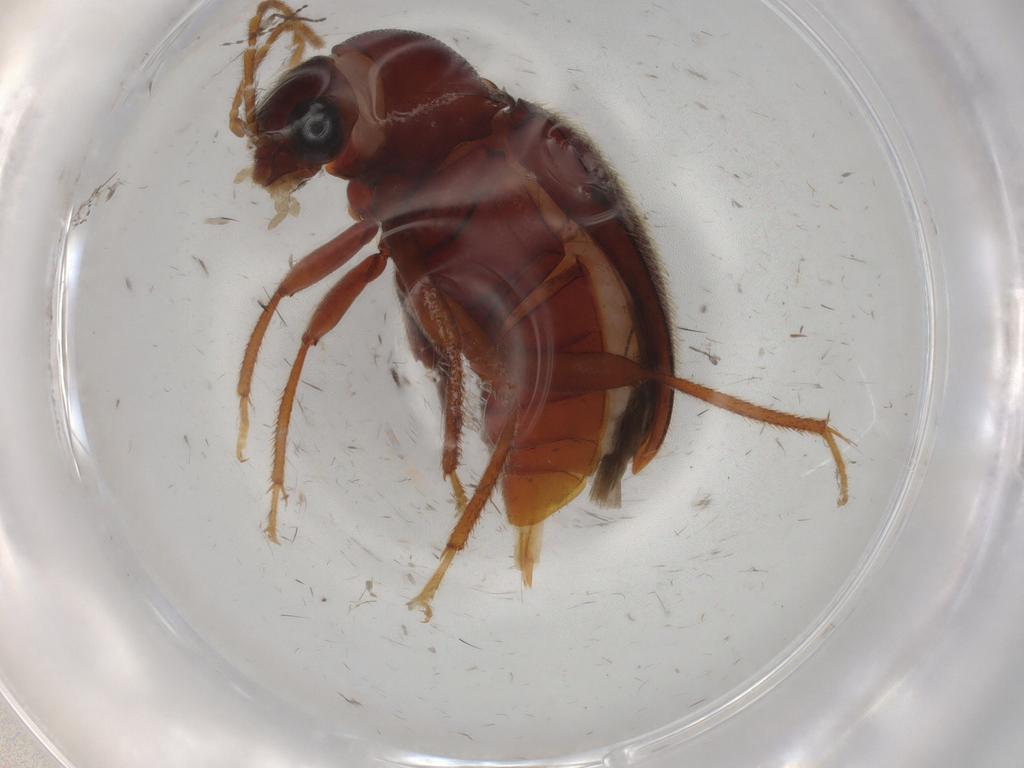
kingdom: Animalia
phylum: Arthropoda
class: Insecta
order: Coleoptera
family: Ptilodactylidae
